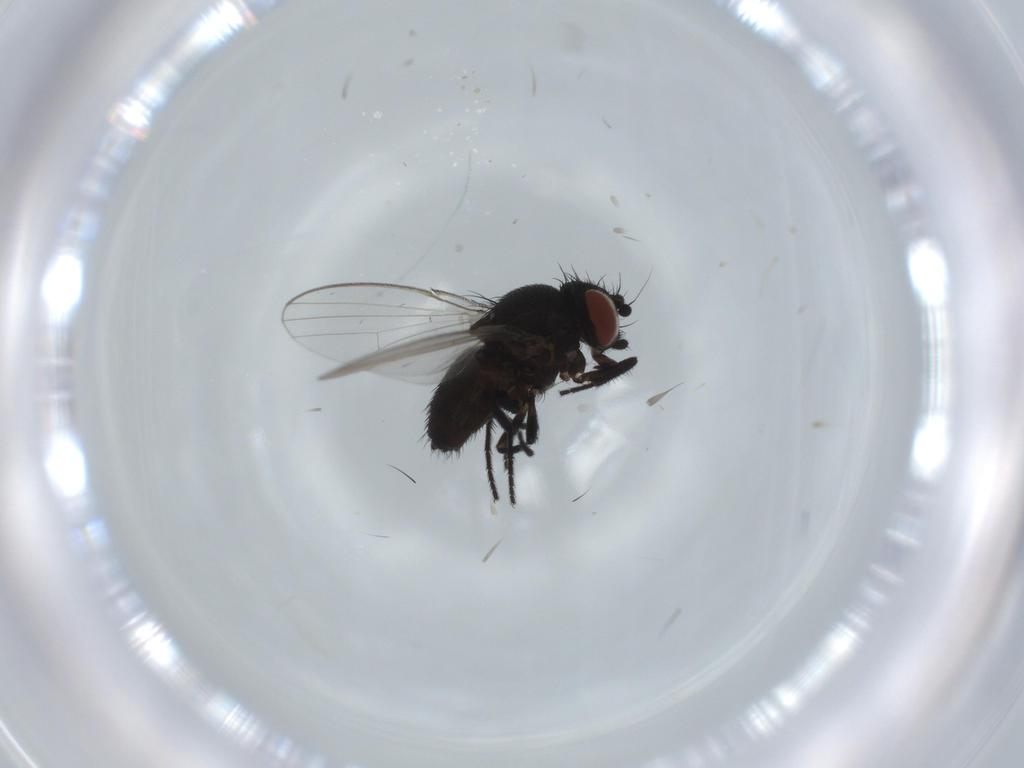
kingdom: Animalia
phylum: Arthropoda
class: Insecta
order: Diptera
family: Milichiidae
